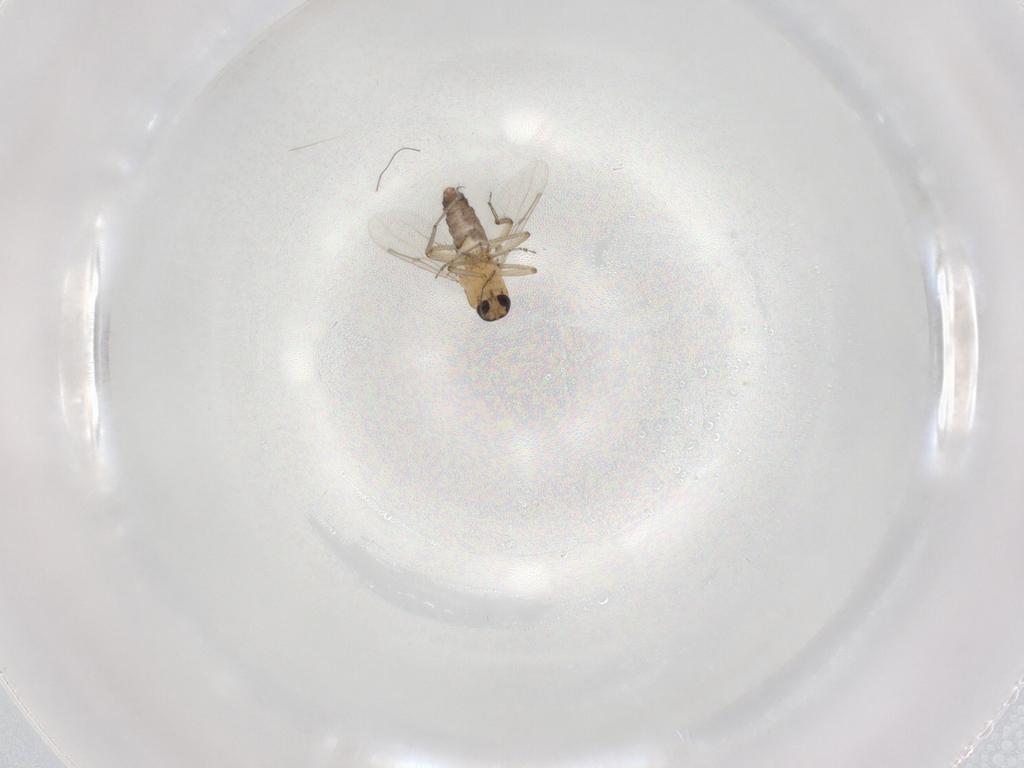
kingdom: Animalia
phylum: Arthropoda
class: Insecta
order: Diptera
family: Ceratopogonidae
